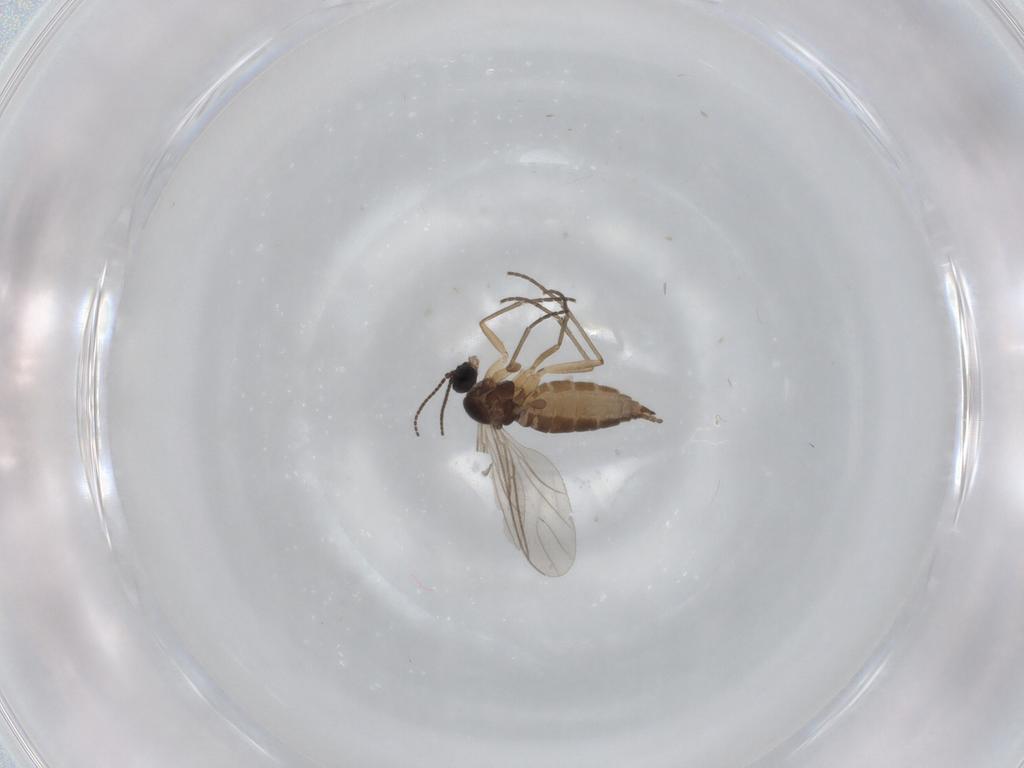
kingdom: Animalia
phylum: Arthropoda
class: Insecta
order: Diptera
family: Sciaridae
